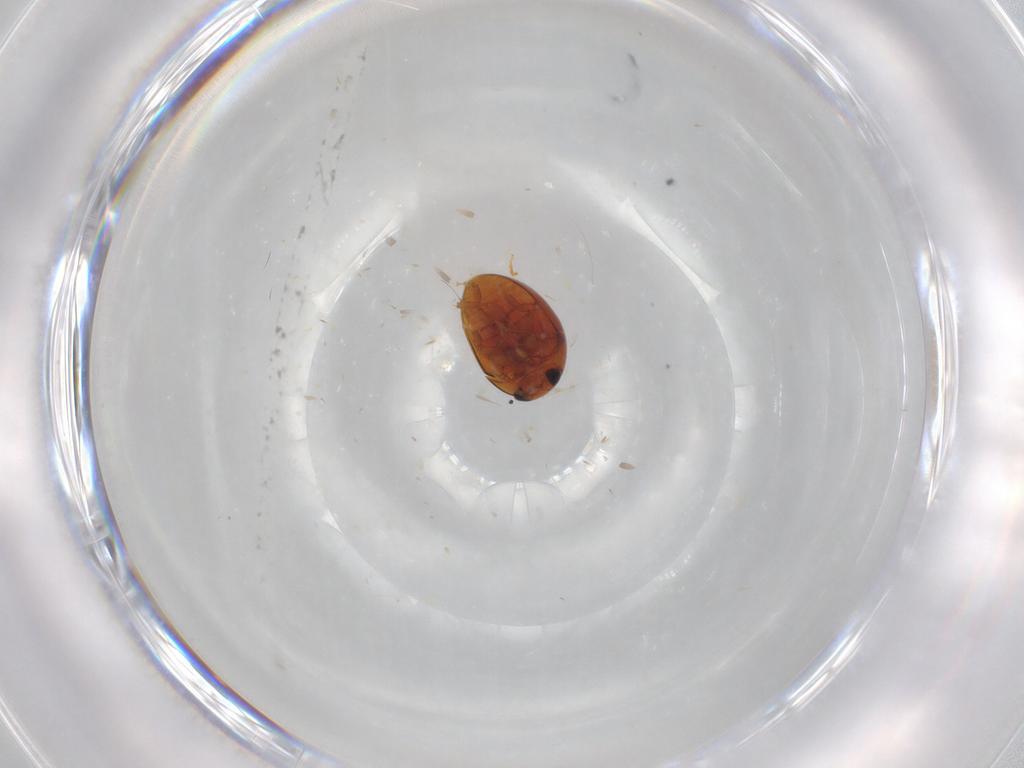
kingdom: Animalia
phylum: Arthropoda
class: Insecta
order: Coleoptera
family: Phalacridae
